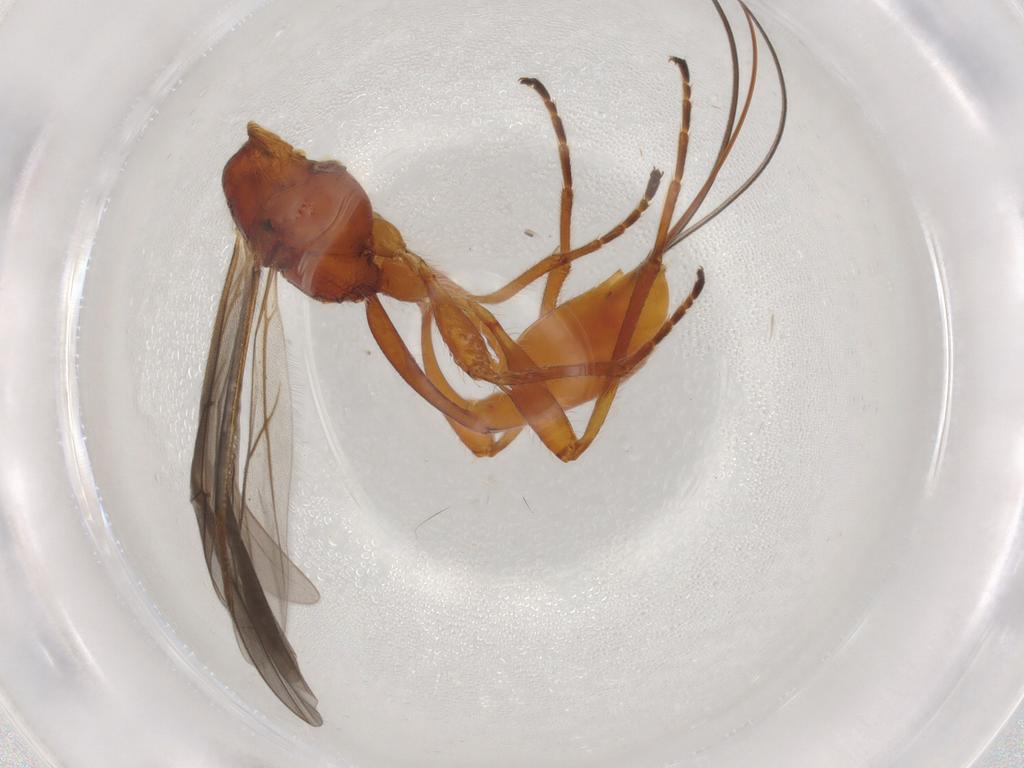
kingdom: Animalia
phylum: Arthropoda
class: Insecta
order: Hymenoptera
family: Braconidae
